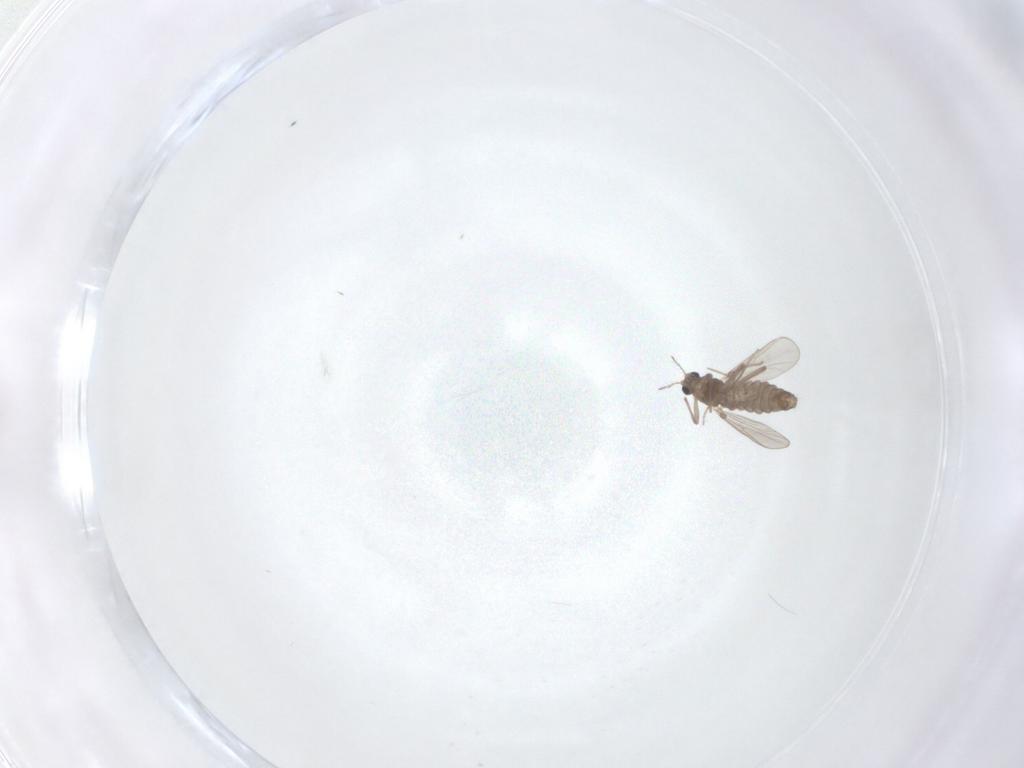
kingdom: Animalia
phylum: Arthropoda
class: Insecta
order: Diptera
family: Chironomidae
